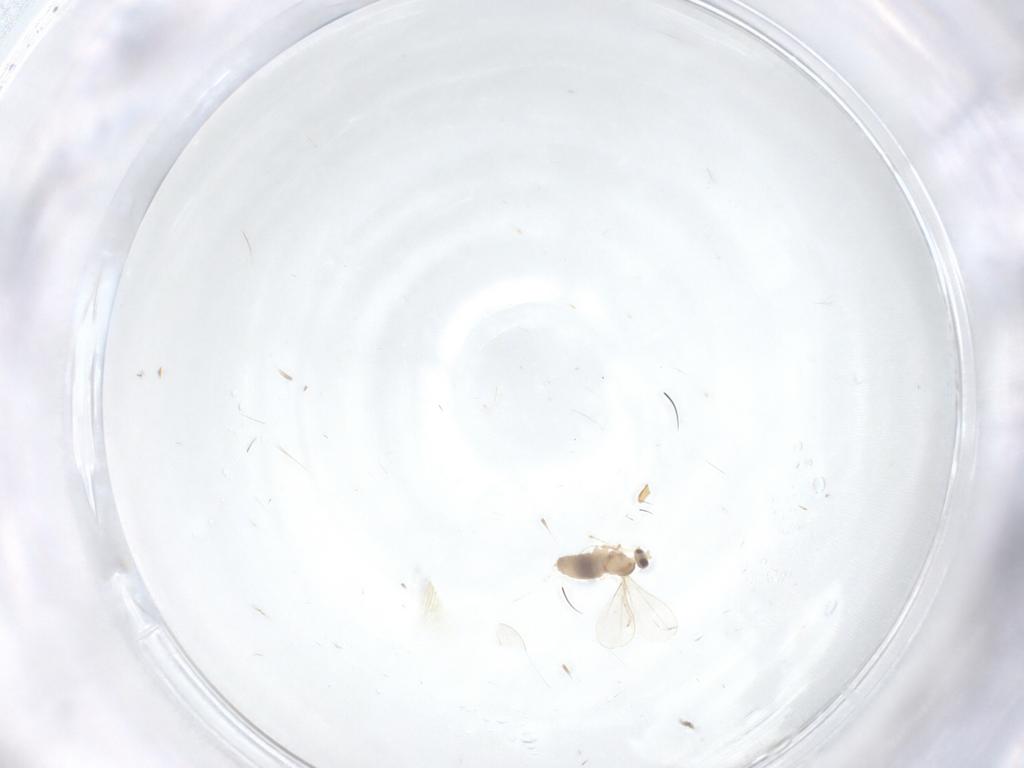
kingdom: Animalia
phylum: Arthropoda
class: Insecta
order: Diptera
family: Cecidomyiidae
